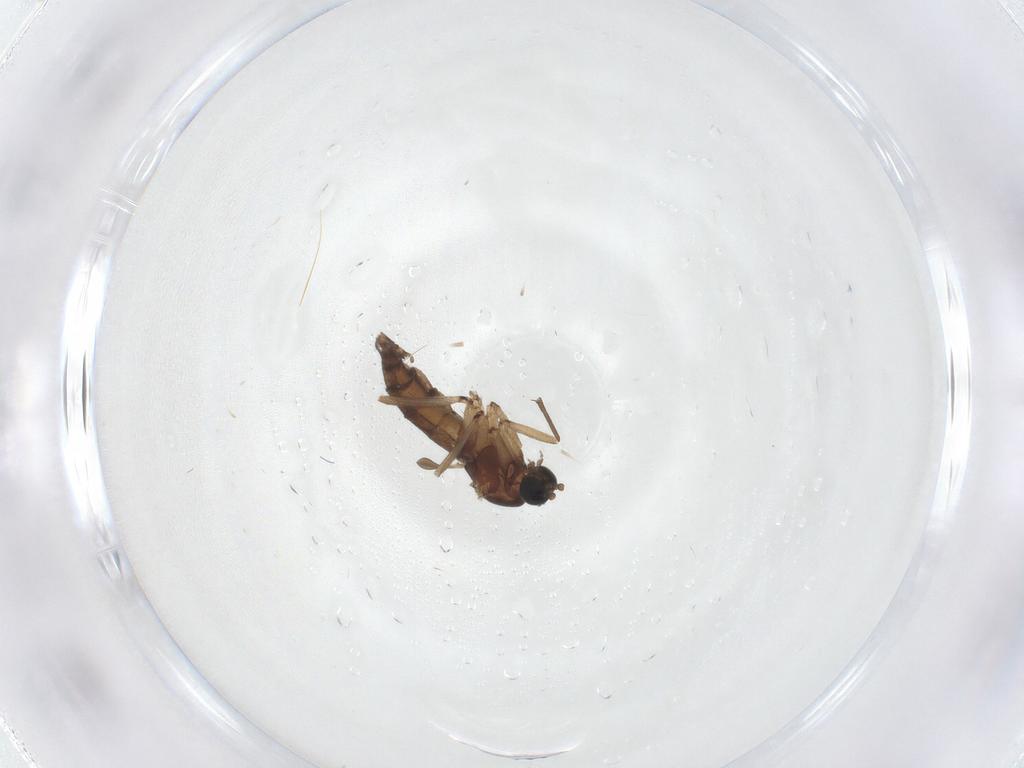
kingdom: Animalia
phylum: Arthropoda
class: Insecta
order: Diptera
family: Sciaridae
